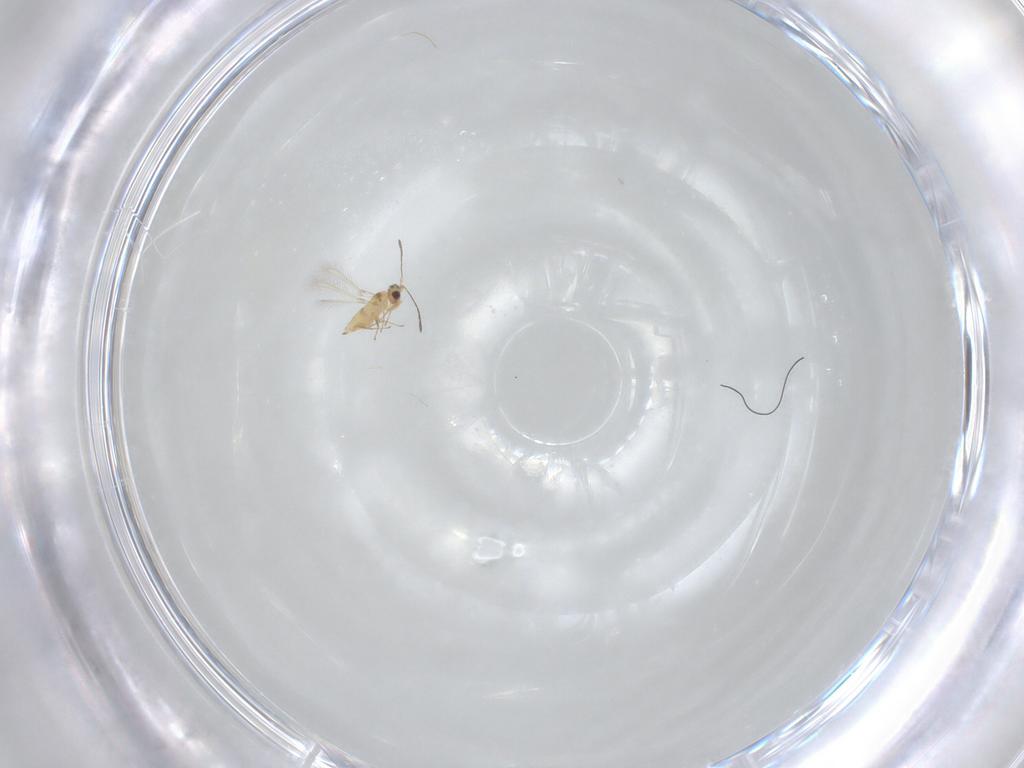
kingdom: Animalia
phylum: Arthropoda
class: Insecta
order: Hymenoptera
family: Mymaridae
